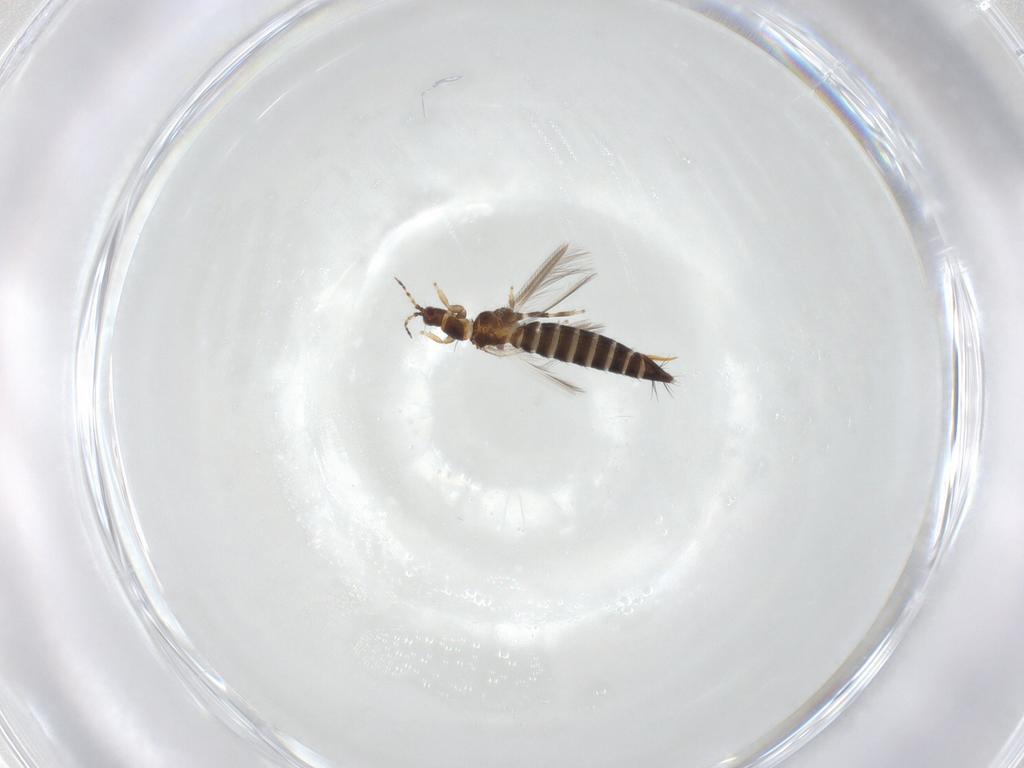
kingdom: Animalia
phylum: Arthropoda
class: Insecta
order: Thysanoptera
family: Thripidae
